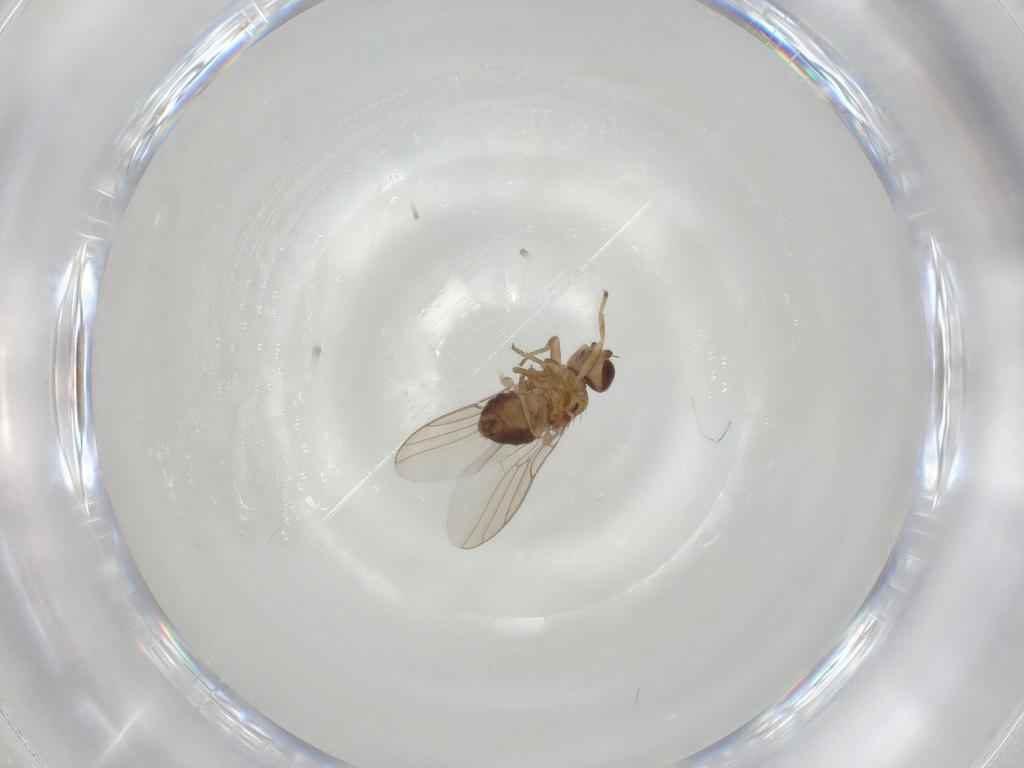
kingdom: Animalia
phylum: Arthropoda
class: Insecta
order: Diptera
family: Chloropidae
